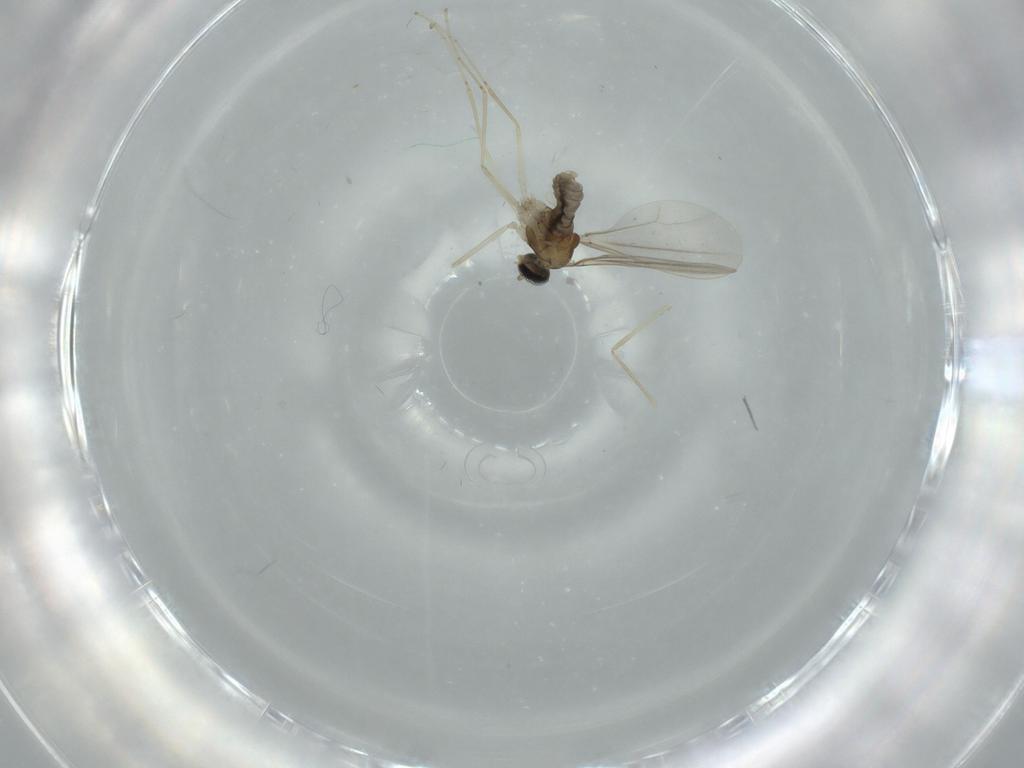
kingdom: Animalia
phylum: Arthropoda
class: Insecta
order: Diptera
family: Cecidomyiidae
